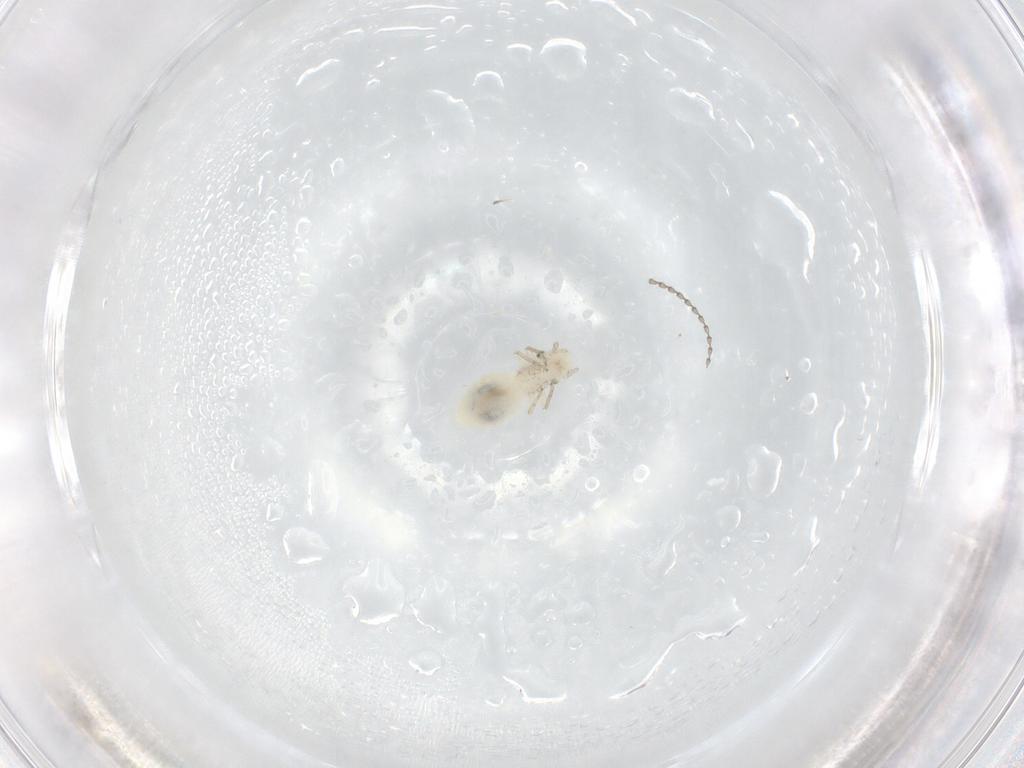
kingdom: Animalia
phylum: Arthropoda
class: Insecta
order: Psocodea
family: Caeciliusidae
